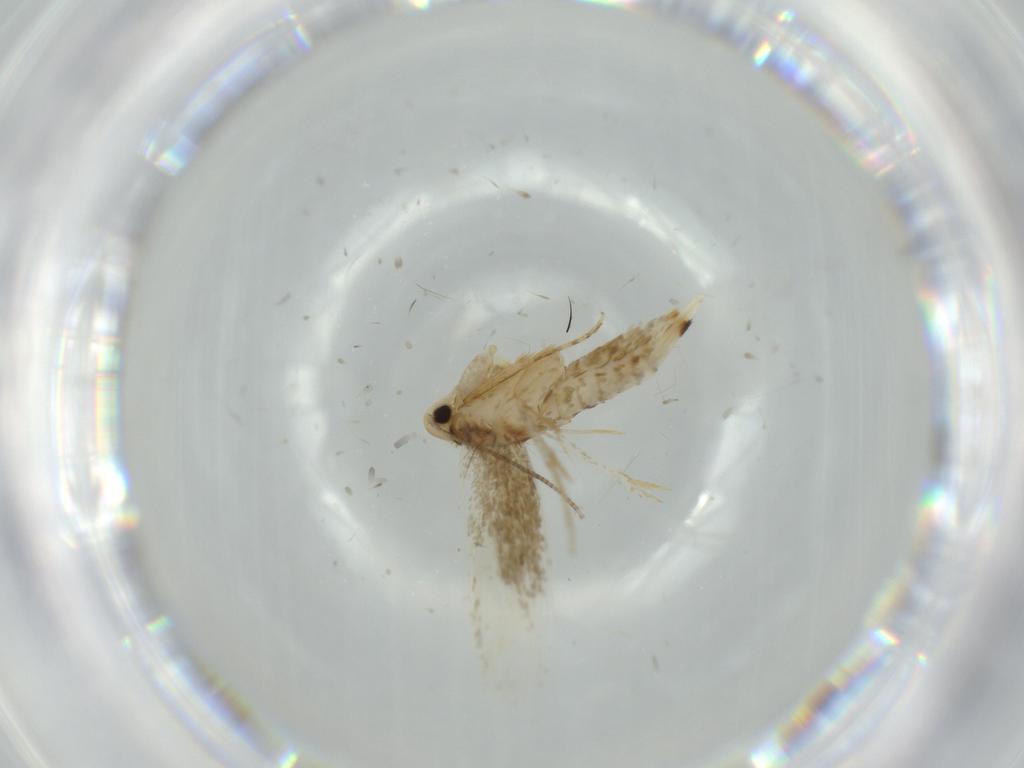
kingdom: Animalia
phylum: Arthropoda
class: Insecta
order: Lepidoptera
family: Tineidae
